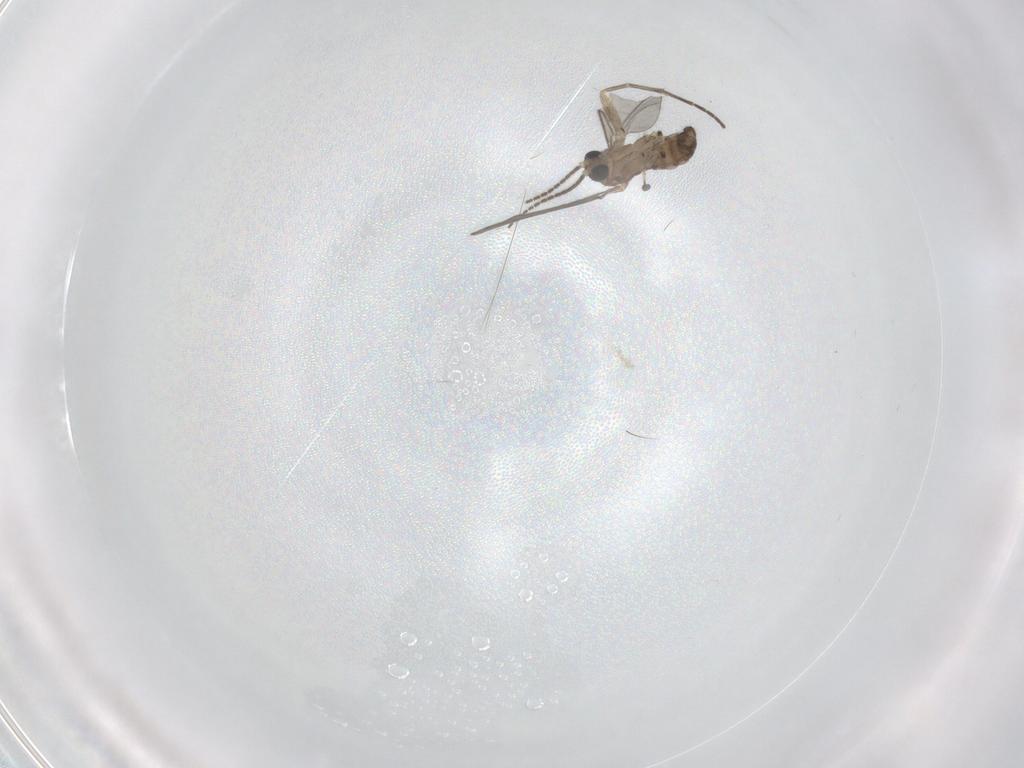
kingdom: Animalia
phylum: Arthropoda
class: Insecta
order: Diptera
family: Sciaridae
